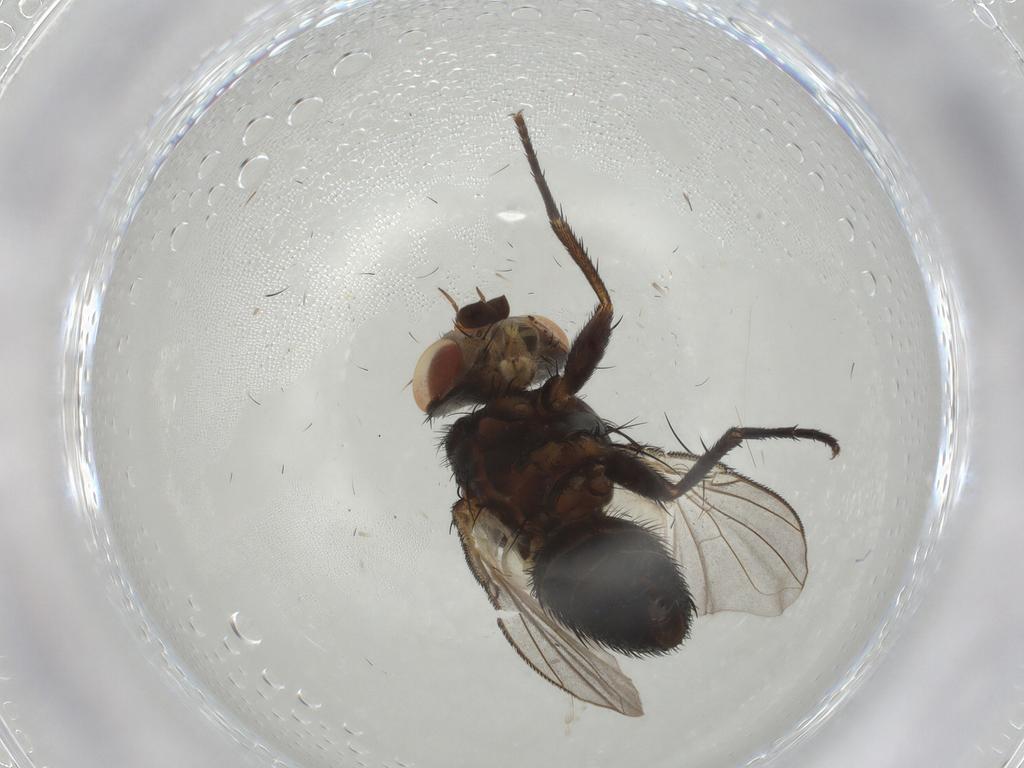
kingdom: Animalia
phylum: Arthropoda
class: Insecta
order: Diptera
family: Tachinidae
